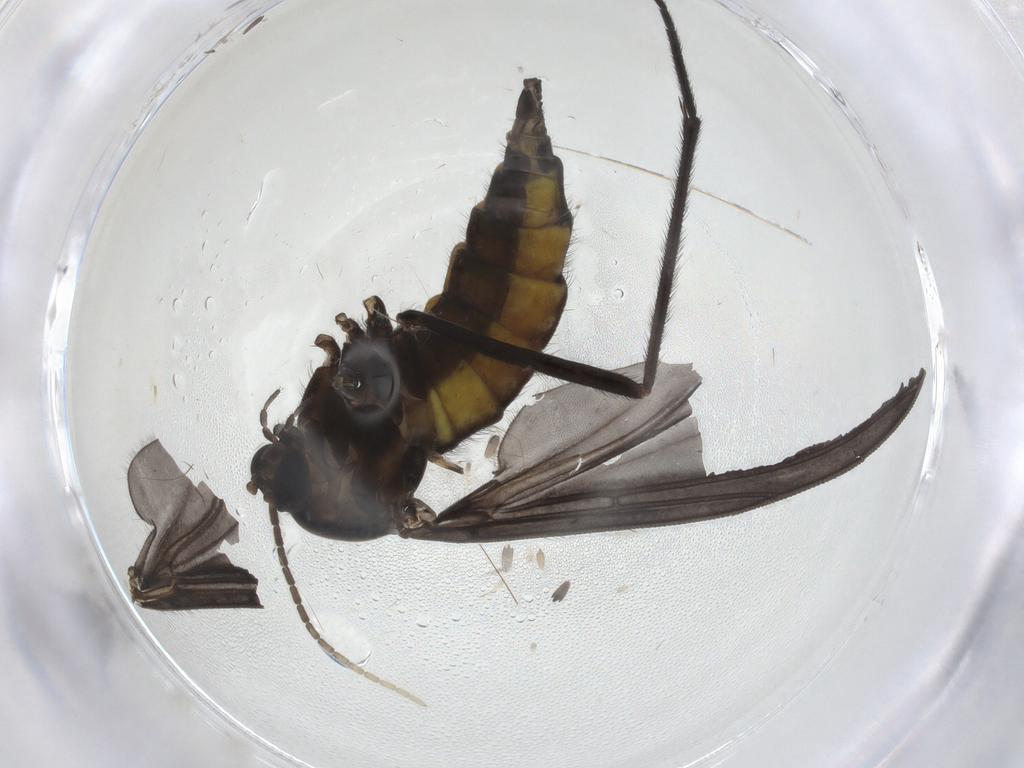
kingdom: Animalia
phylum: Arthropoda
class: Insecta
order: Diptera
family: Sciaridae
